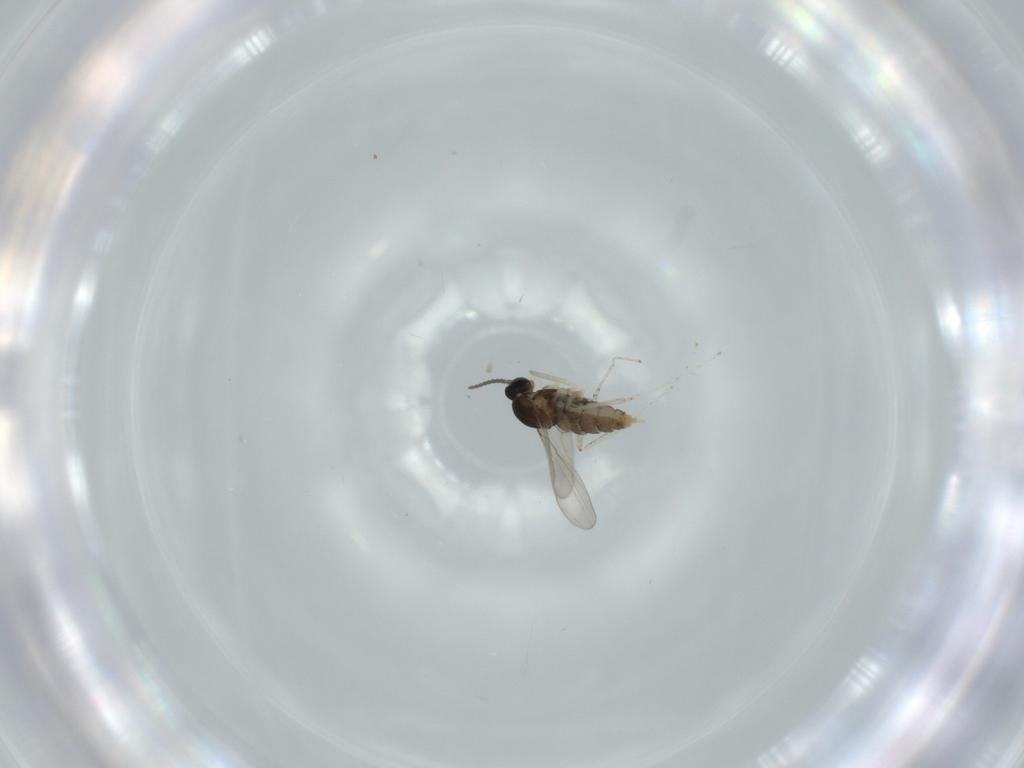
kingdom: Animalia
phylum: Arthropoda
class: Insecta
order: Diptera
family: Cecidomyiidae
